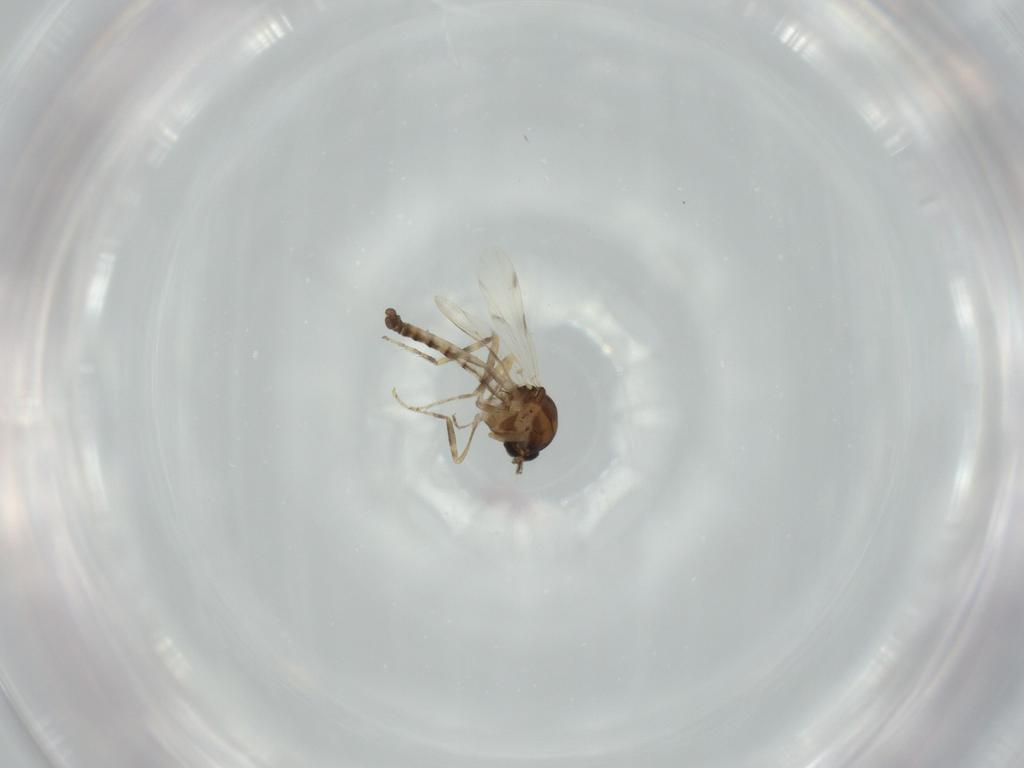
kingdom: Animalia
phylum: Arthropoda
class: Insecta
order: Diptera
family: Ceratopogonidae
